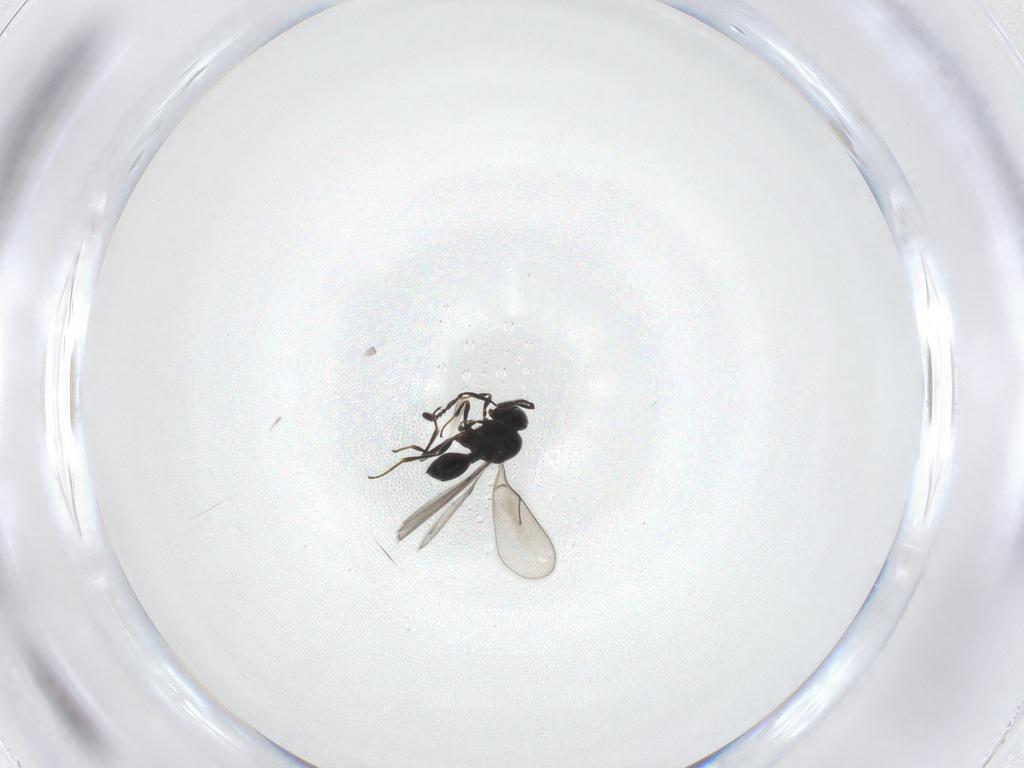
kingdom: Animalia
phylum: Arthropoda
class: Insecta
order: Hymenoptera
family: Scelionidae
